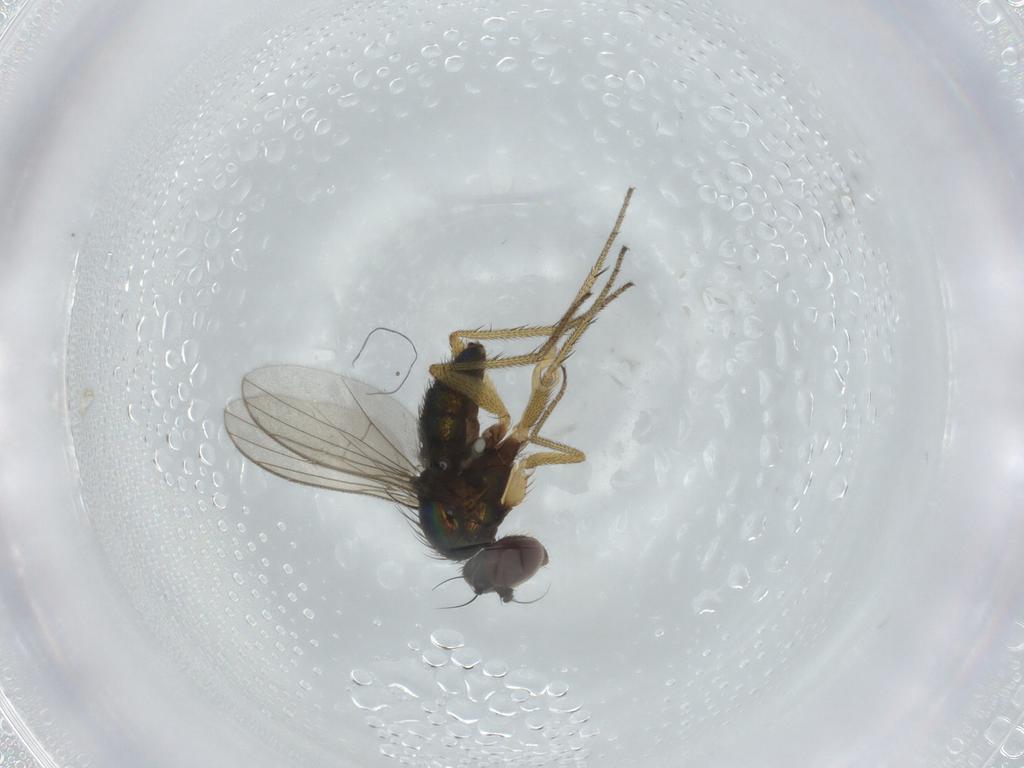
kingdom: Animalia
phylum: Arthropoda
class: Insecta
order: Diptera
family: Dolichopodidae
